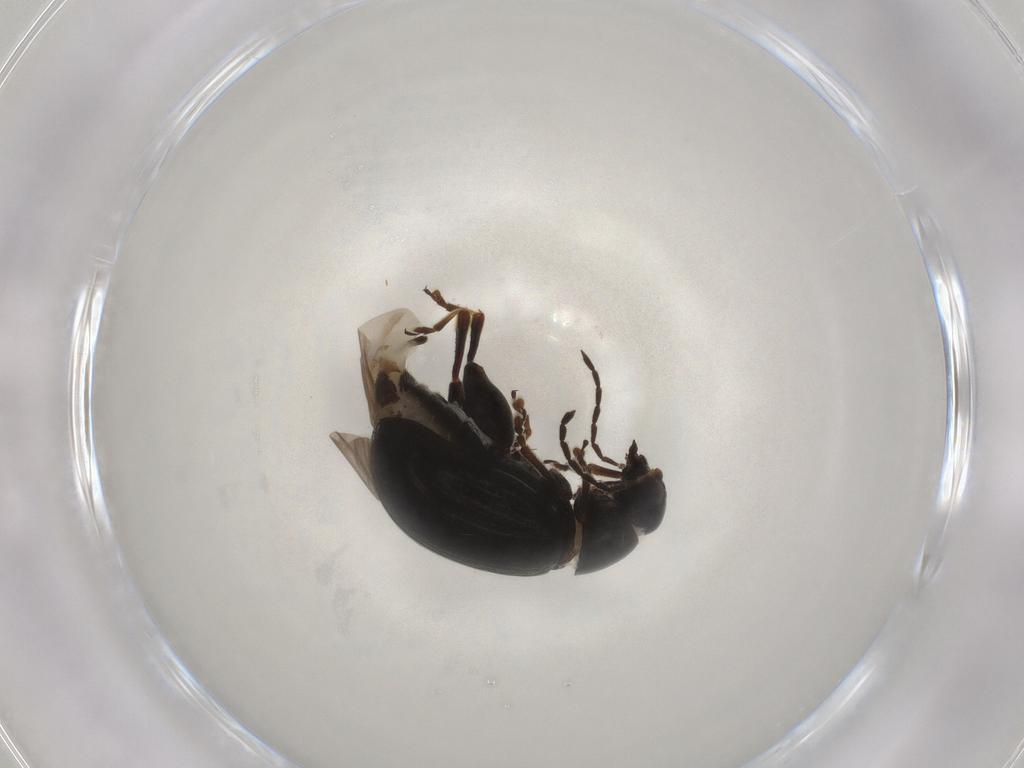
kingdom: Animalia
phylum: Arthropoda
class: Insecta
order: Coleoptera
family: Chrysomelidae
